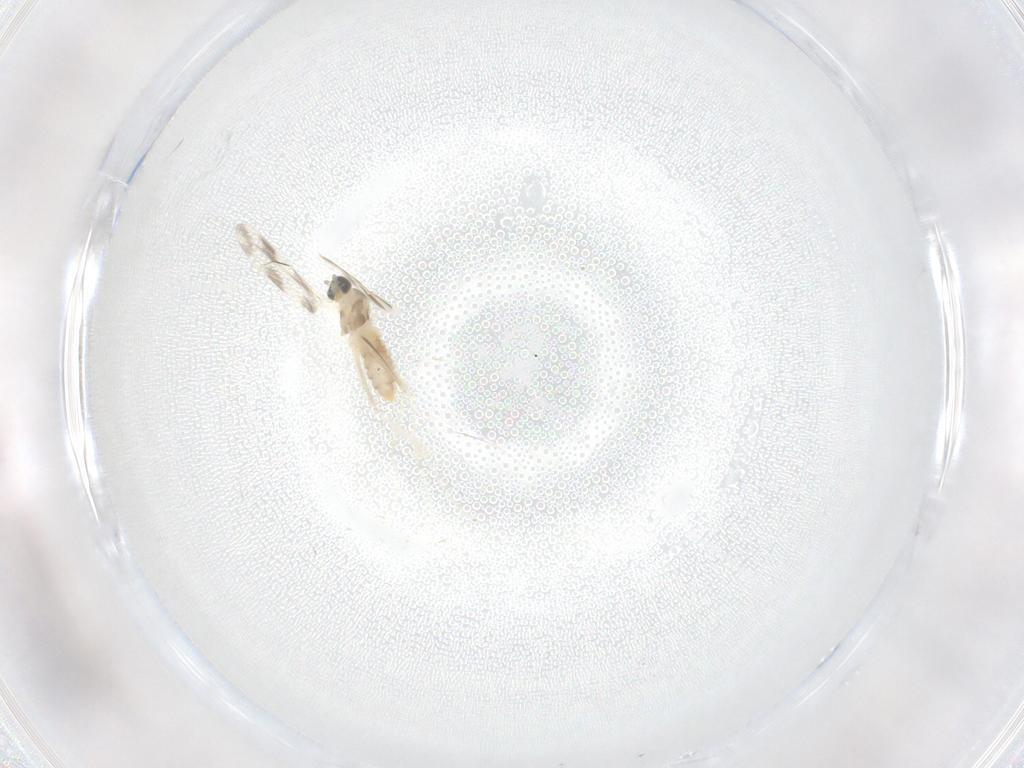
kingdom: Animalia
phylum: Arthropoda
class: Insecta
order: Diptera
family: Cecidomyiidae
